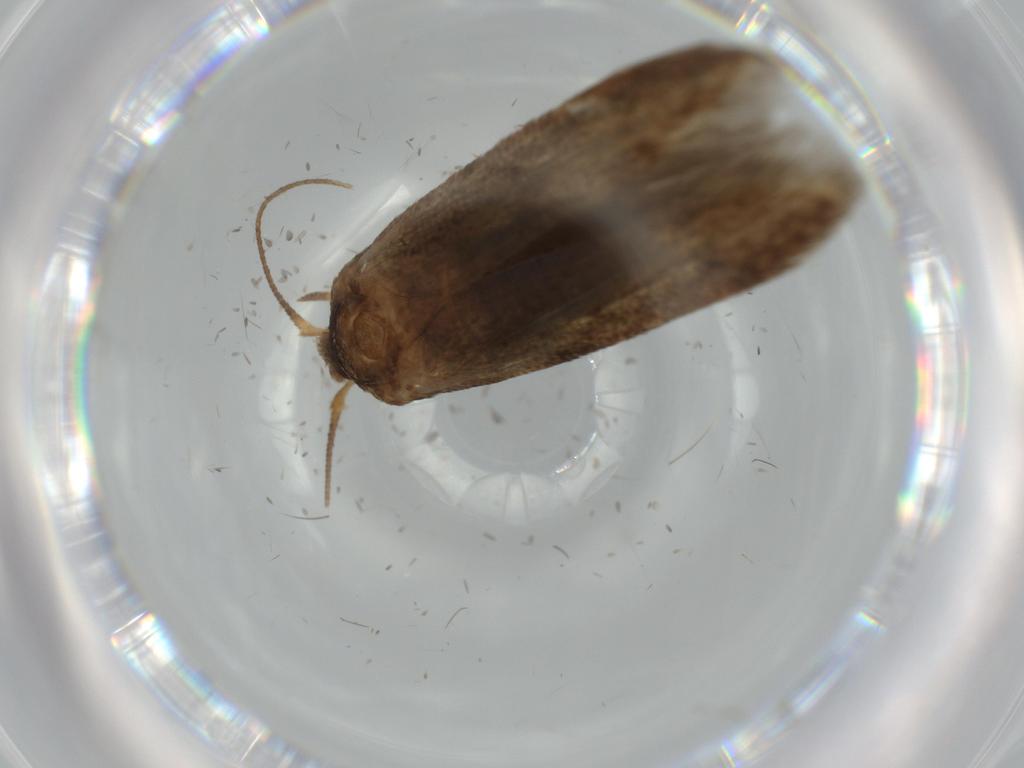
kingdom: Animalia
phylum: Arthropoda
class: Insecta
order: Lepidoptera
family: Blastobasidae
